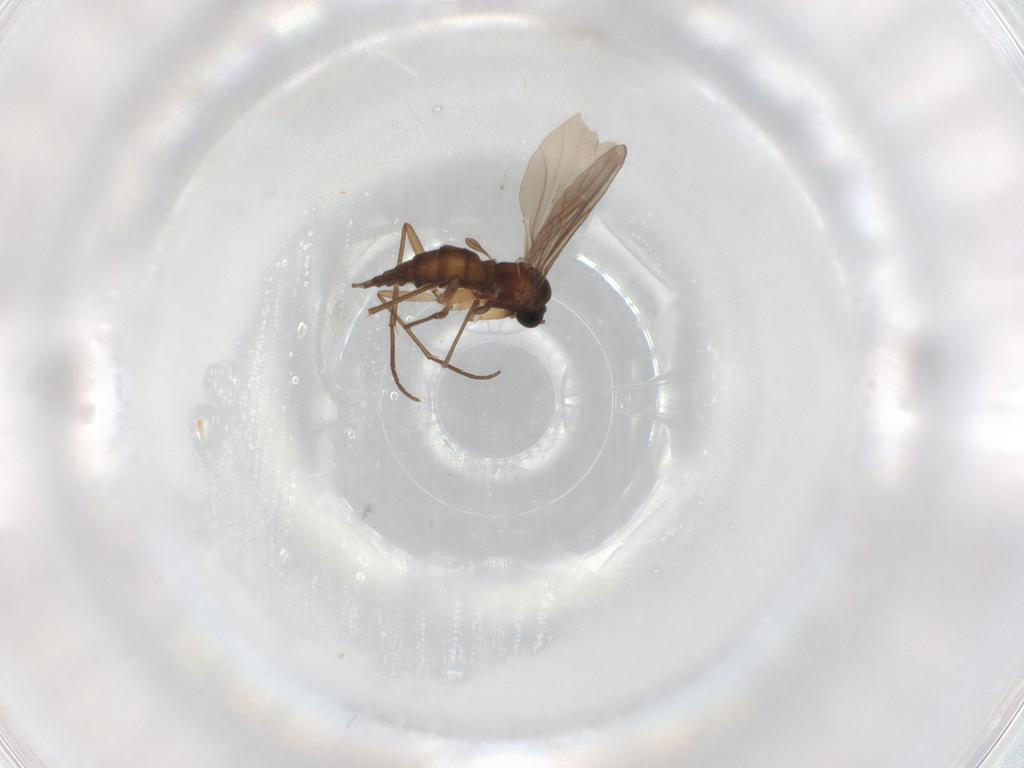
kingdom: Animalia
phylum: Arthropoda
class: Insecta
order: Diptera
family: Sciaridae
